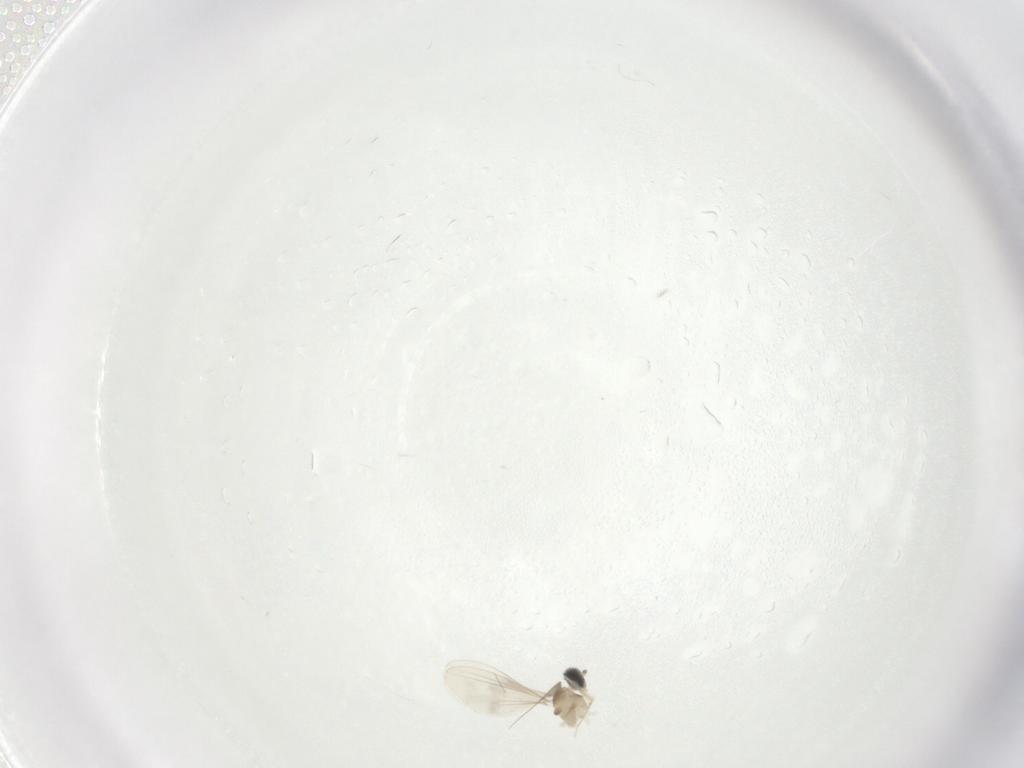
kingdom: Animalia
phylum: Arthropoda
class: Insecta
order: Diptera
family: Cecidomyiidae
